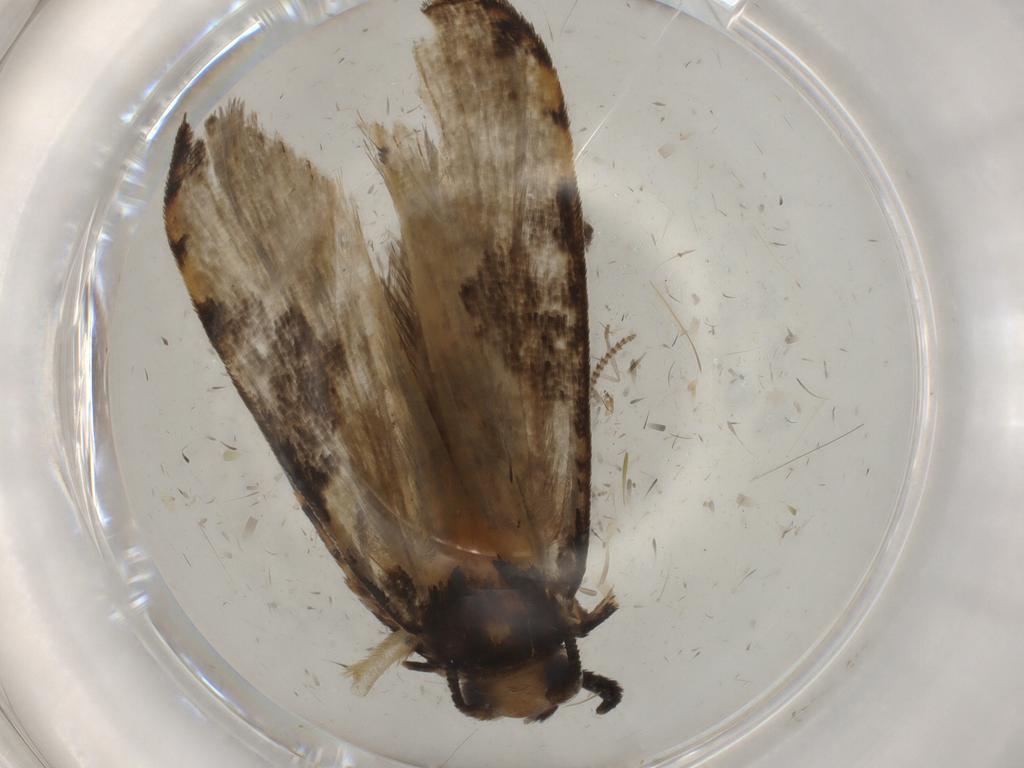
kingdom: Animalia
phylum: Arthropoda
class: Insecta
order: Lepidoptera
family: Tineidae
